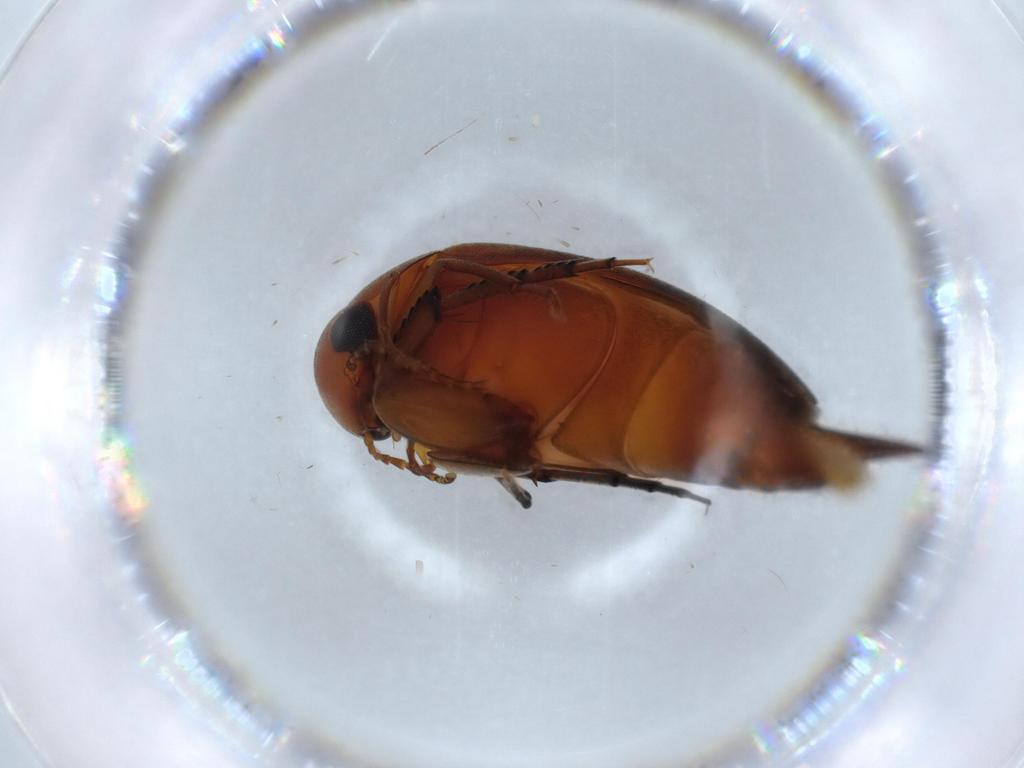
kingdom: Animalia
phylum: Arthropoda
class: Insecta
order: Coleoptera
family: Mordellidae
